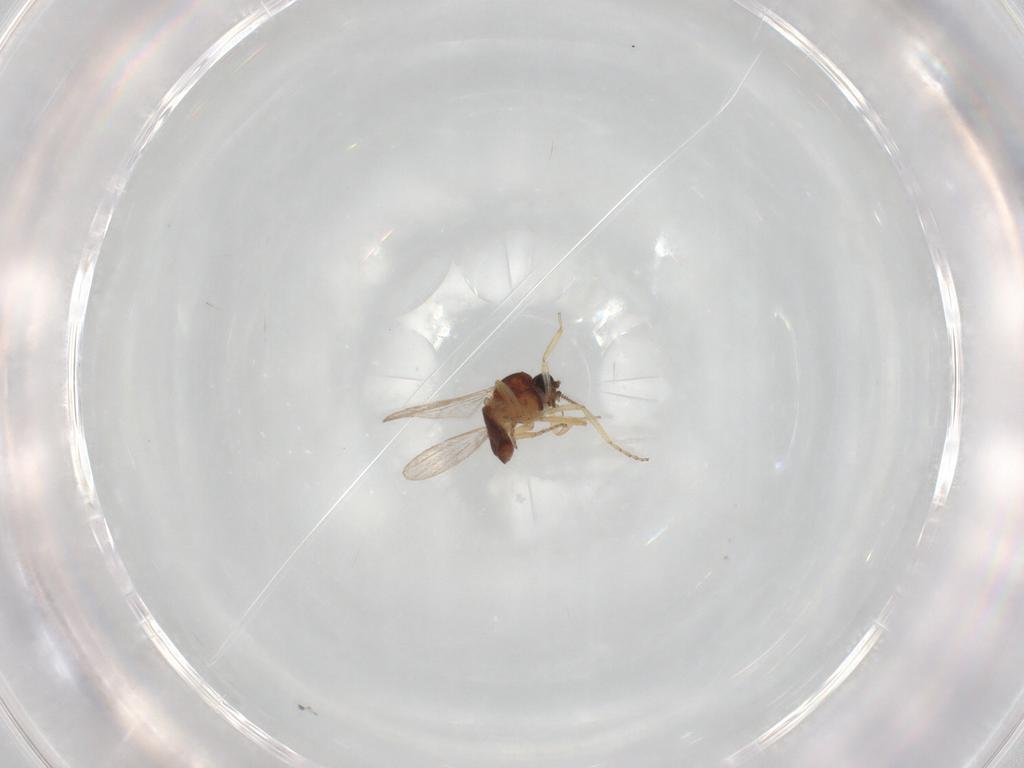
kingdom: Animalia
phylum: Arthropoda
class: Insecta
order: Diptera
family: Ceratopogonidae
